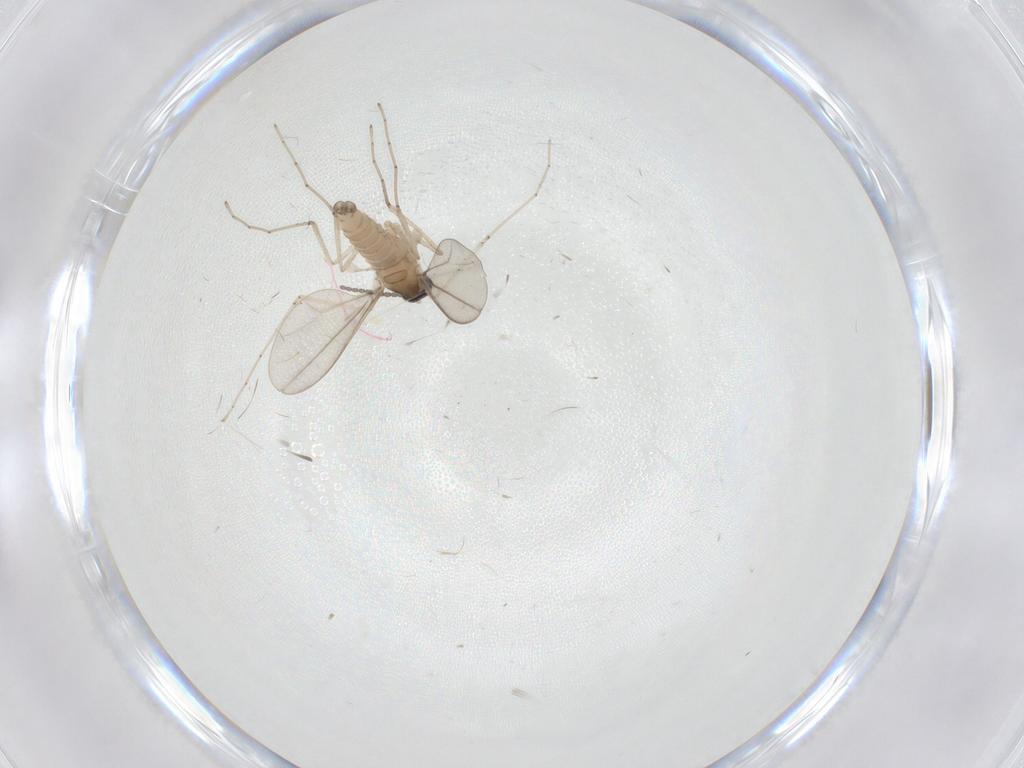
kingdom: Animalia
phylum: Arthropoda
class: Insecta
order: Diptera
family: Cecidomyiidae
